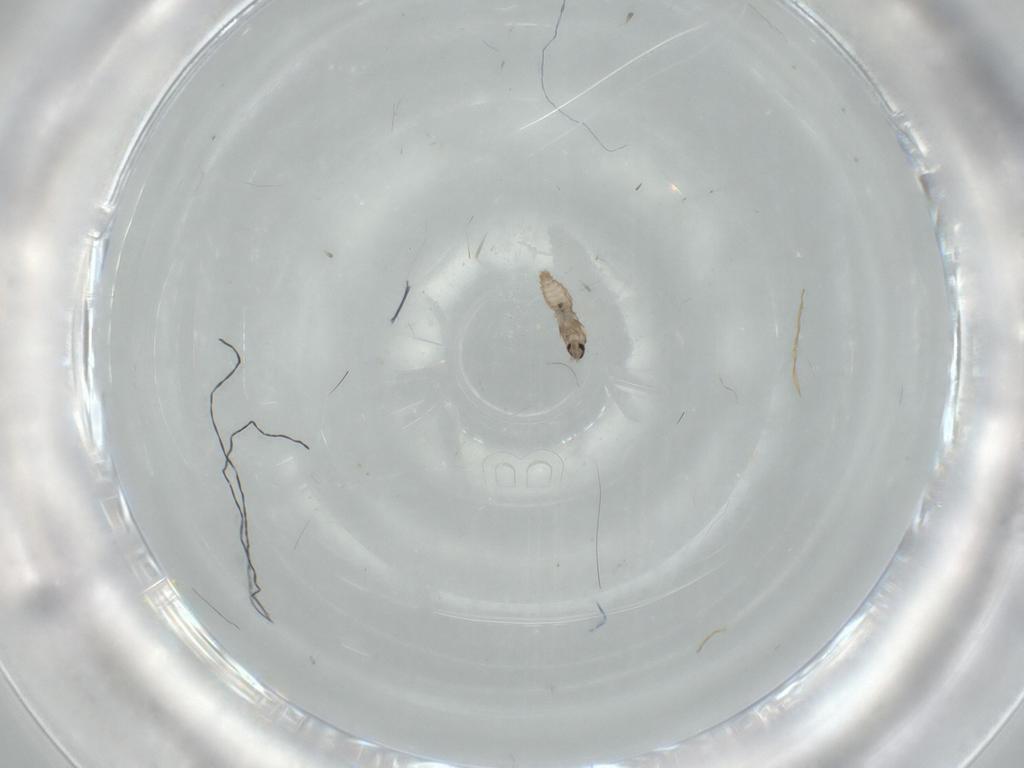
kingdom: Animalia
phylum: Arthropoda
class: Insecta
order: Diptera
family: Cecidomyiidae
